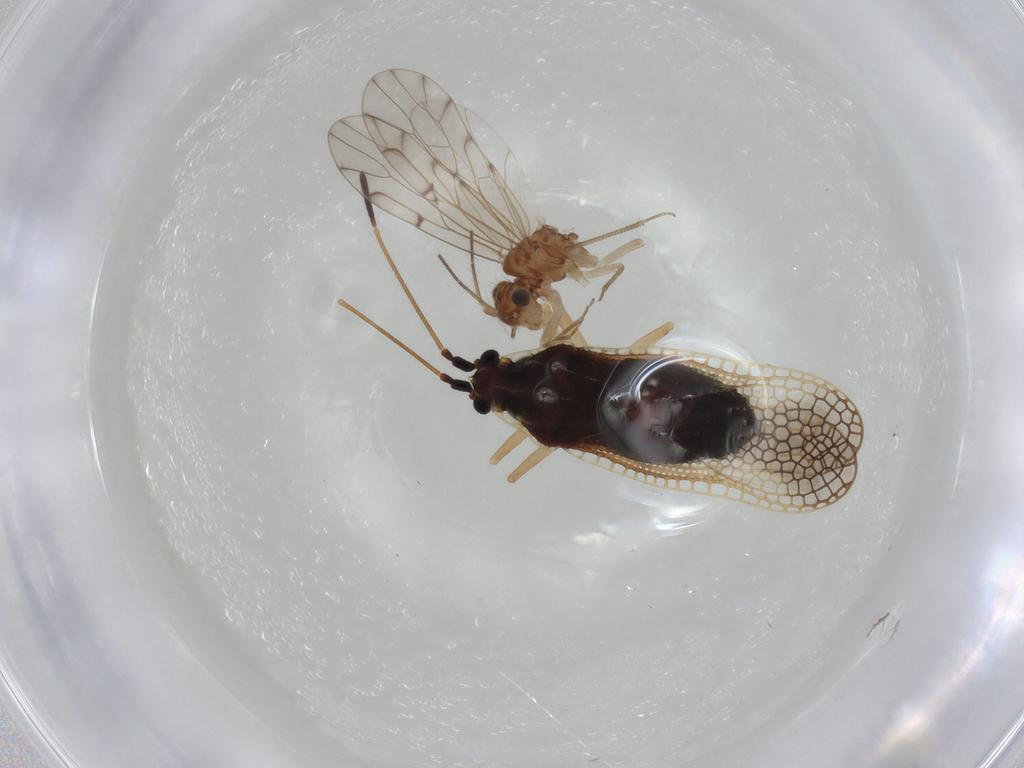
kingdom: Animalia
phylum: Arthropoda
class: Insecta
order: Hemiptera
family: Tingidae
